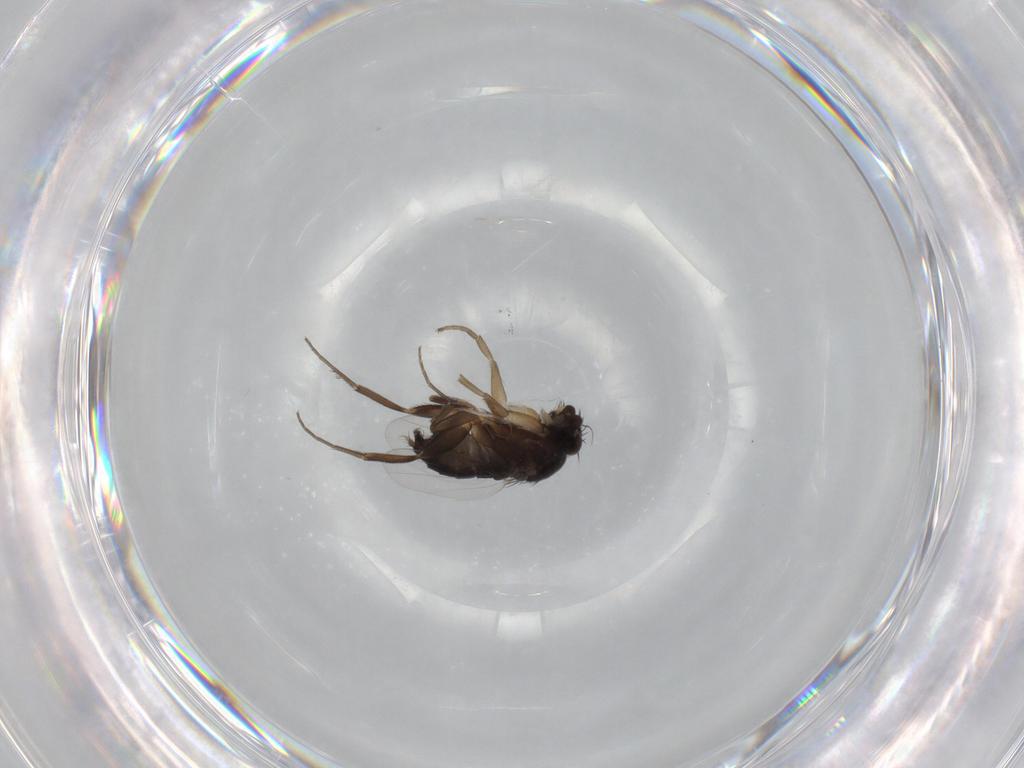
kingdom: Animalia
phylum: Arthropoda
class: Insecta
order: Diptera
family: Phoridae
